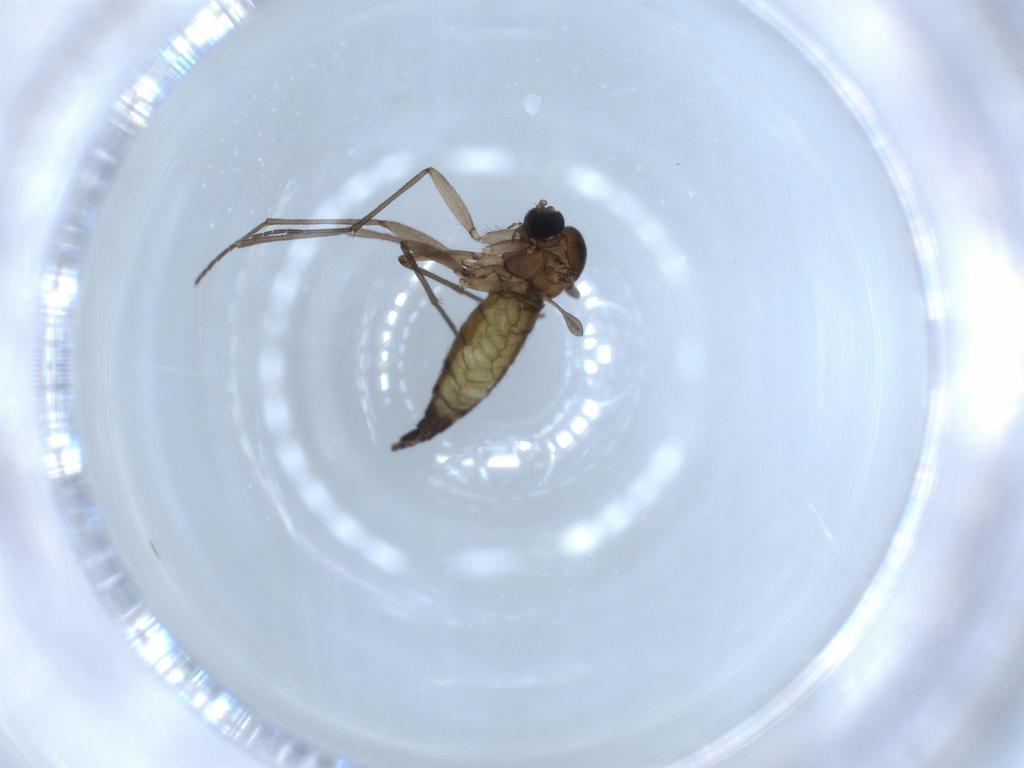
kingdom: Animalia
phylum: Arthropoda
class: Insecta
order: Diptera
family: Sciaridae
